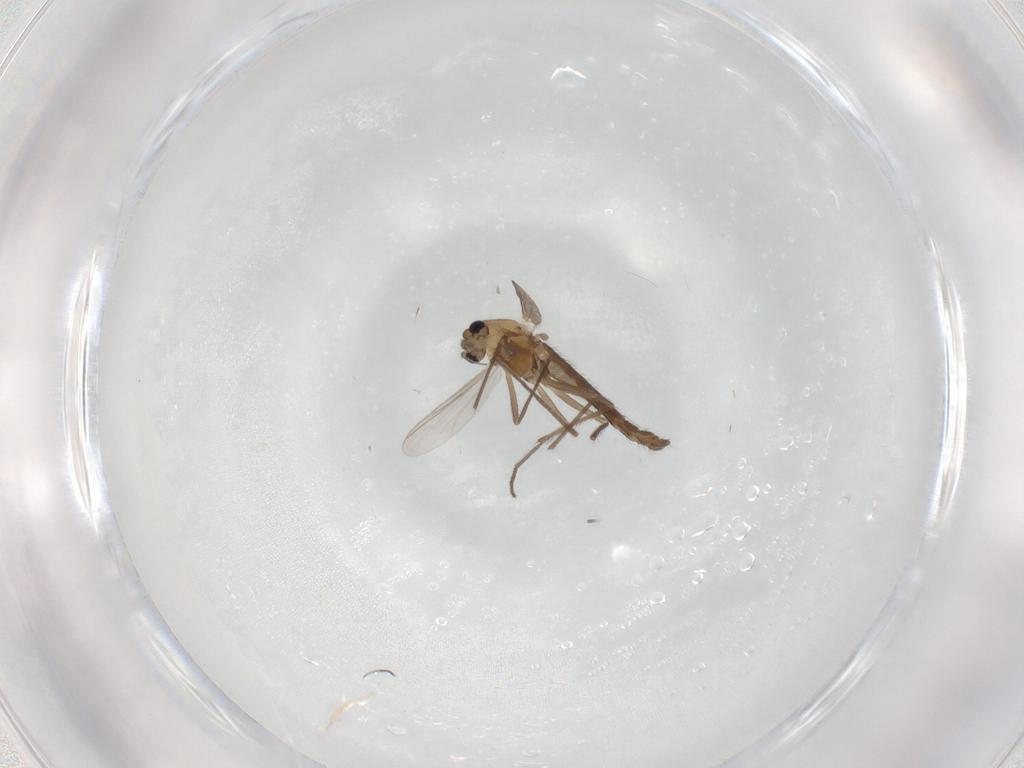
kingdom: Animalia
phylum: Arthropoda
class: Insecta
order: Diptera
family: Chironomidae
